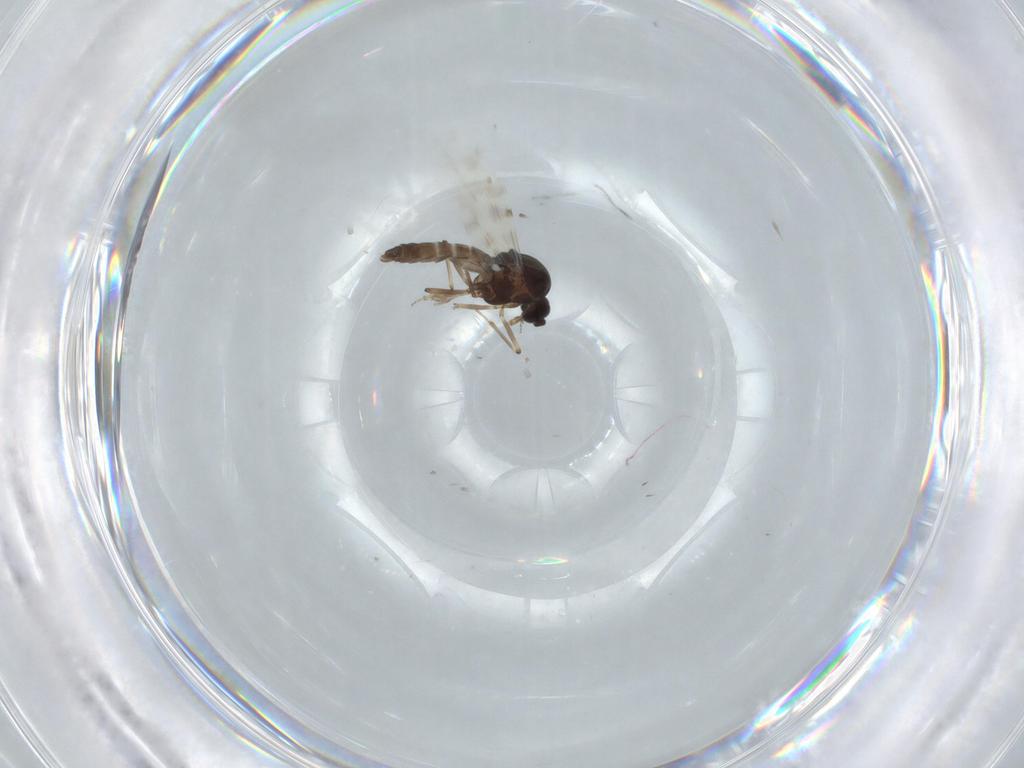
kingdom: Animalia
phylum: Arthropoda
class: Insecta
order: Diptera
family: Ceratopogonidae
